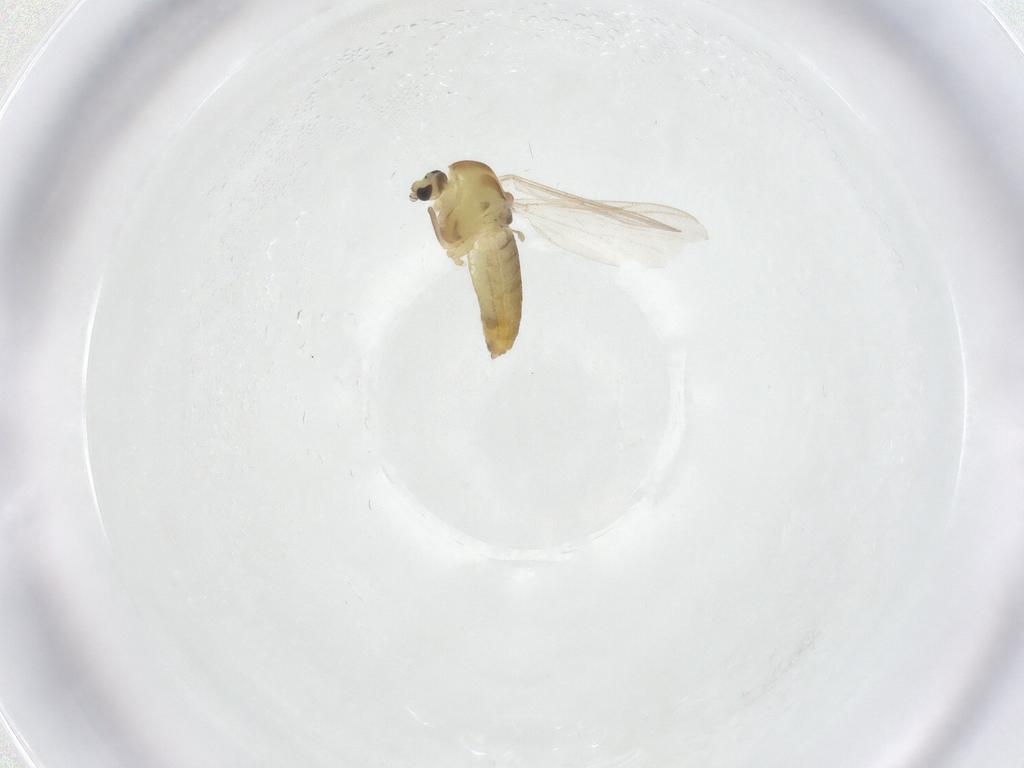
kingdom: Animalia
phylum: Arthropoda
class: Insecta
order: Diptera
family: Chironomidae
